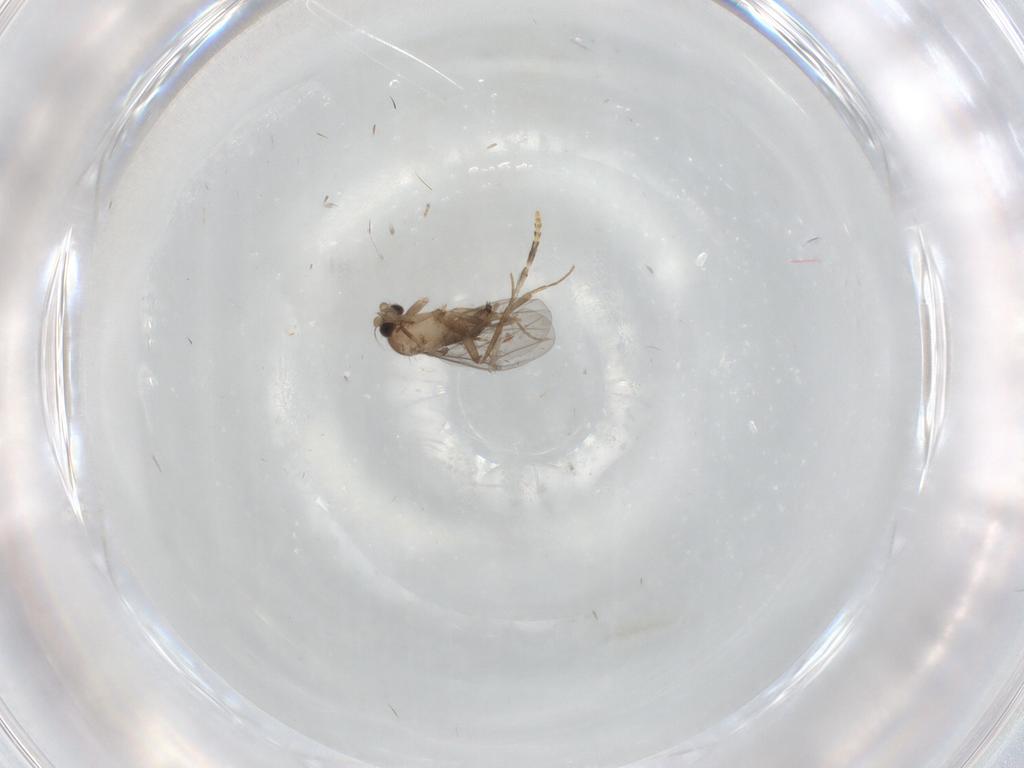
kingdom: Animalia
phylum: Arthropoda
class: Insecta
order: Diptera
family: Psychodidae
